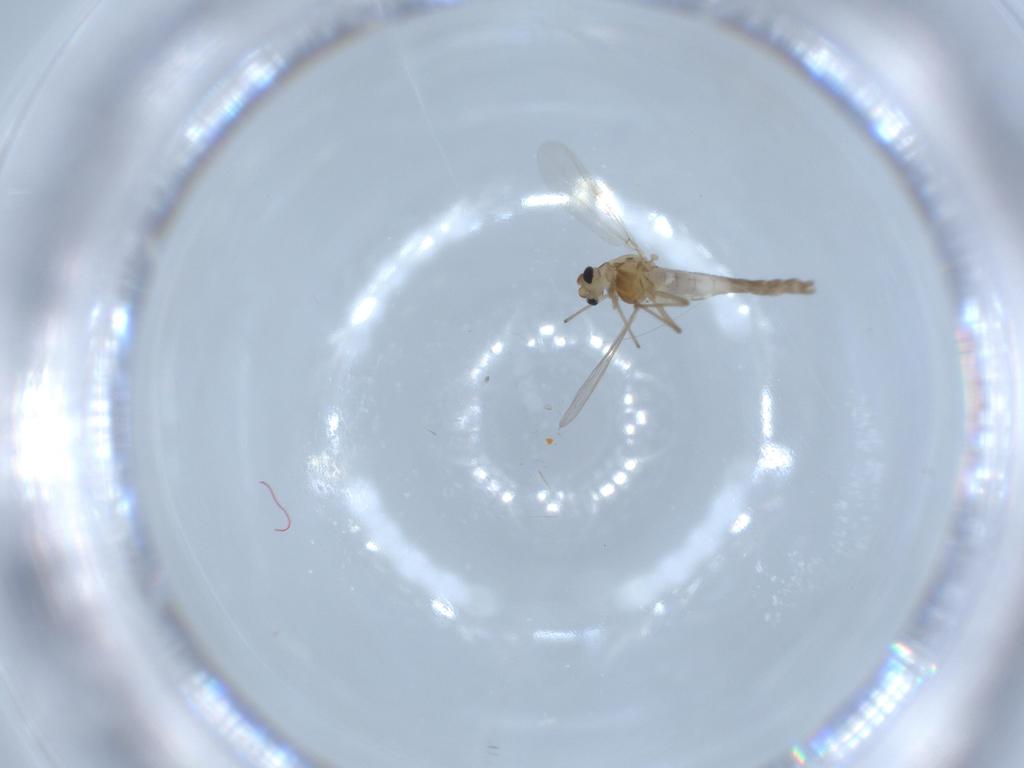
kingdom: Animalia
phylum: Arthropoda
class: Insecta
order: Diptera
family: Chironomidae
